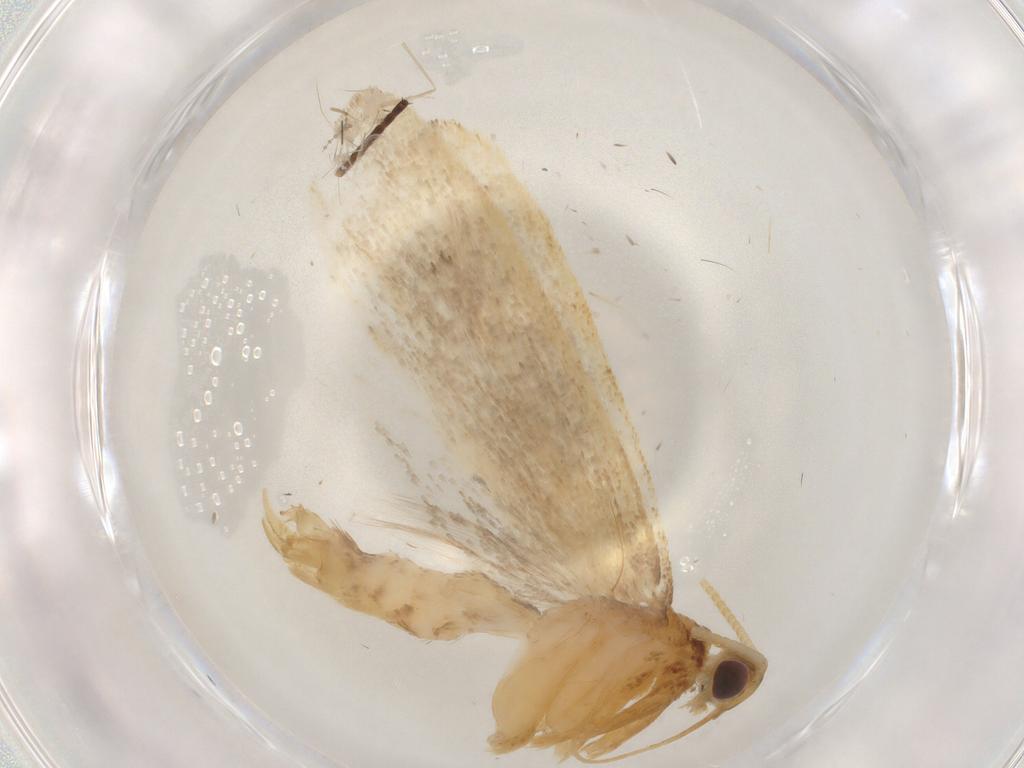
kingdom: Animalia
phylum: Arthropoda
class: Insecta
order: Lepidoptera
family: Lecithoceridae
